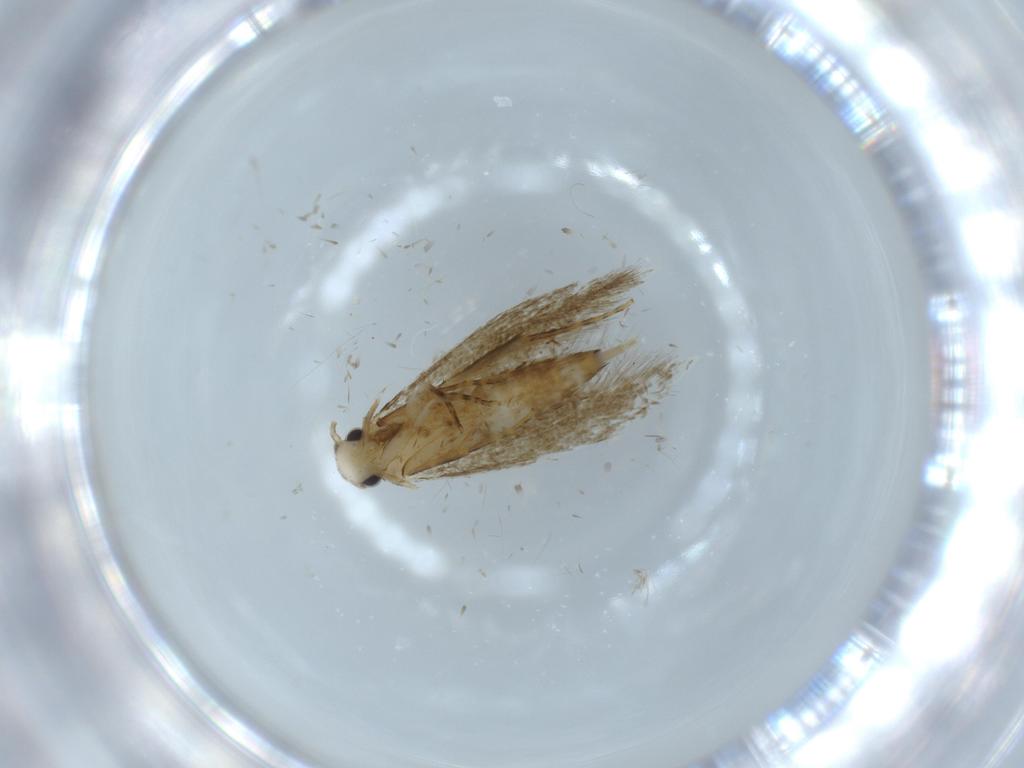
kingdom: Animalia
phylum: Arthropoda
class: Insecta
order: Lepidoptera
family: Tineidae
